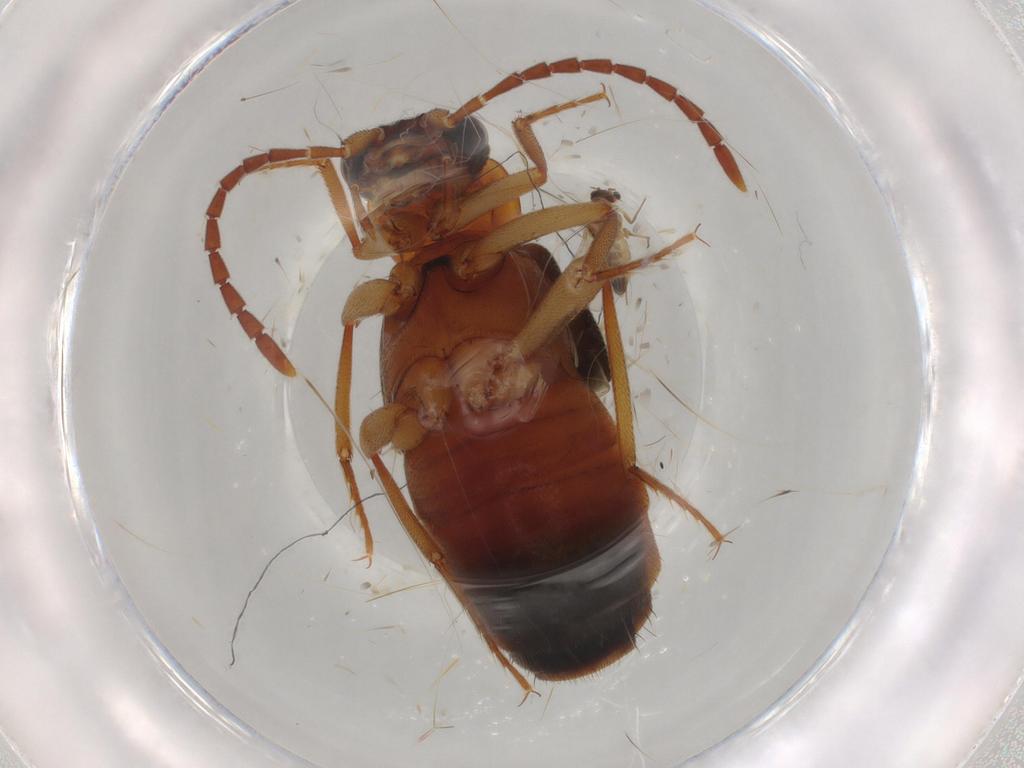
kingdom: Animalia
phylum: Arthropoda
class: Insecta
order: Coleoptera
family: Staphylinidae
